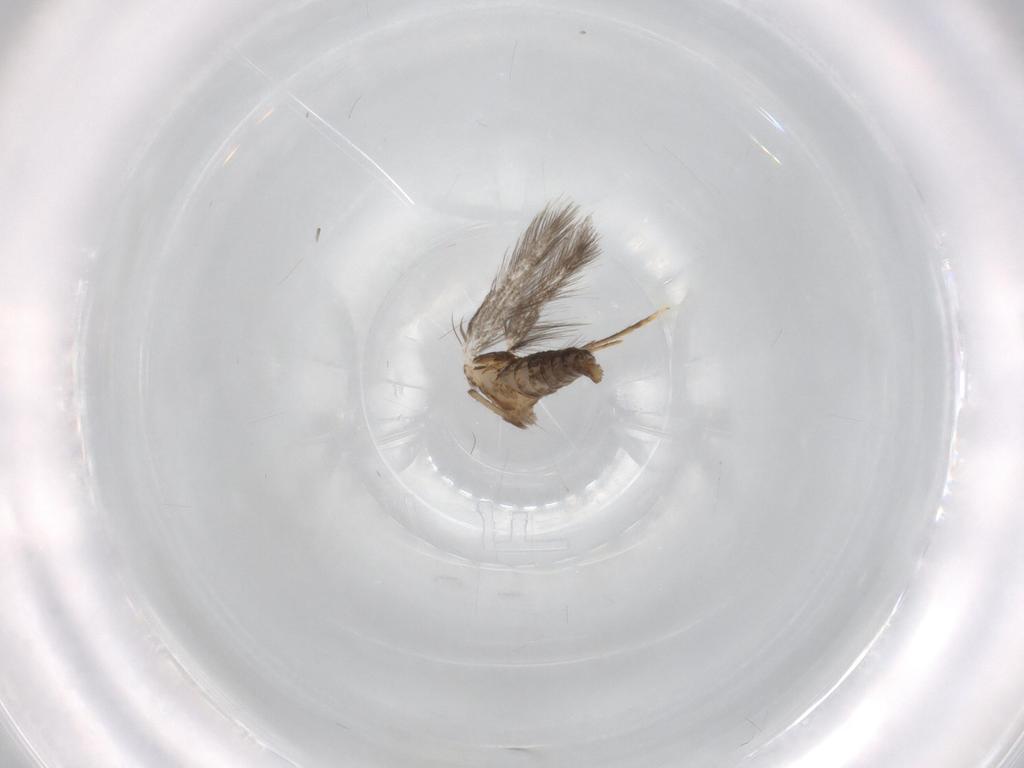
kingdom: Animalia
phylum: Arthropoda
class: Insecta
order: Lepidoptera
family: Nepticulidae
